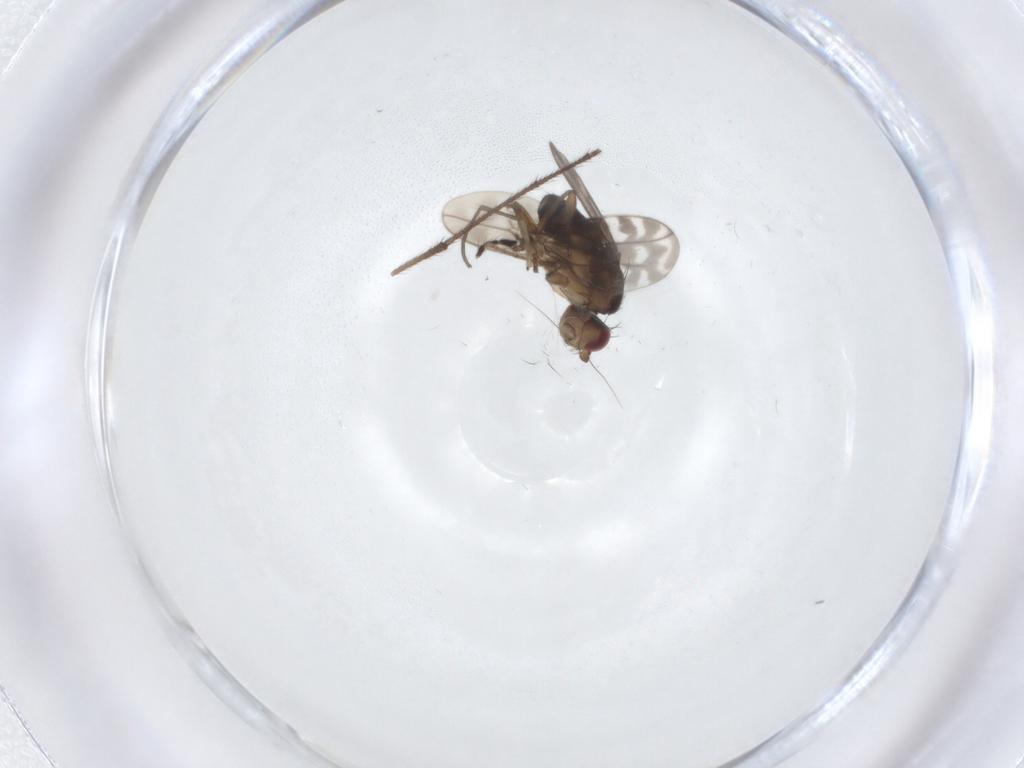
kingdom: Animalia
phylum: Arthropoda
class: Insecta
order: Diptera
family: Sphaeroceridae
